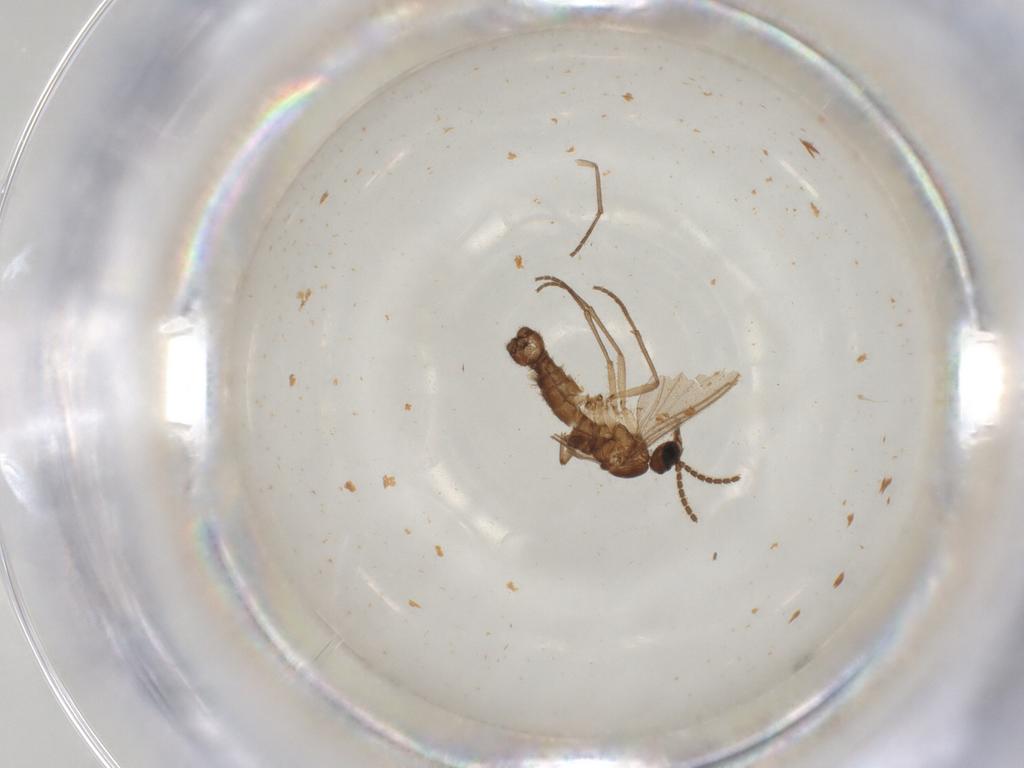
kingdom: Animalia
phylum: Arthropoda
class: Insecta
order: Diptera
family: Sciaridae
